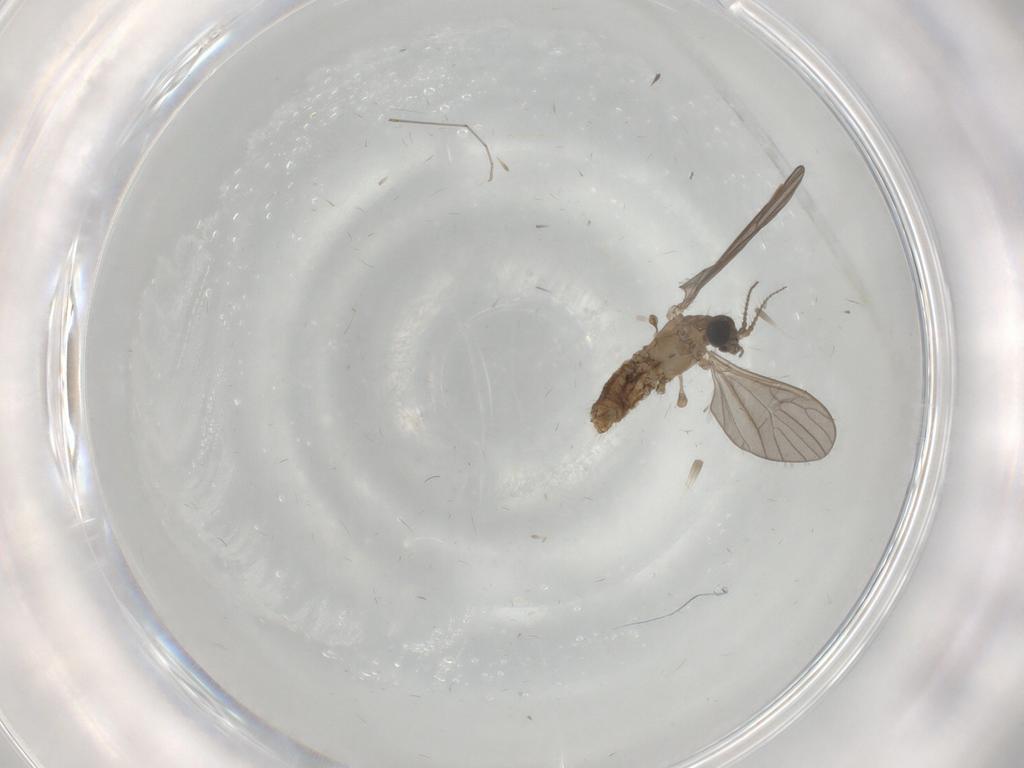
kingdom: Animalia
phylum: Arthropoda
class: Insecta
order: Diptera
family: Limoniidae
